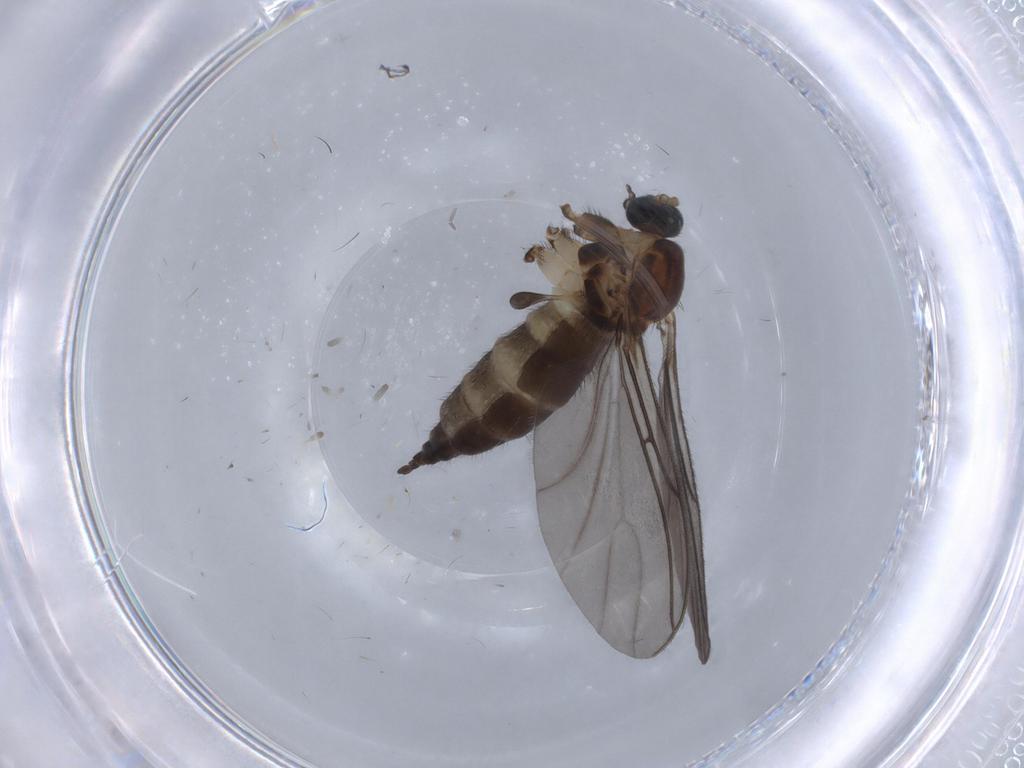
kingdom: Animalia
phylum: Arthropoda
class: Insecta
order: Diptera
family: Sciaridae
